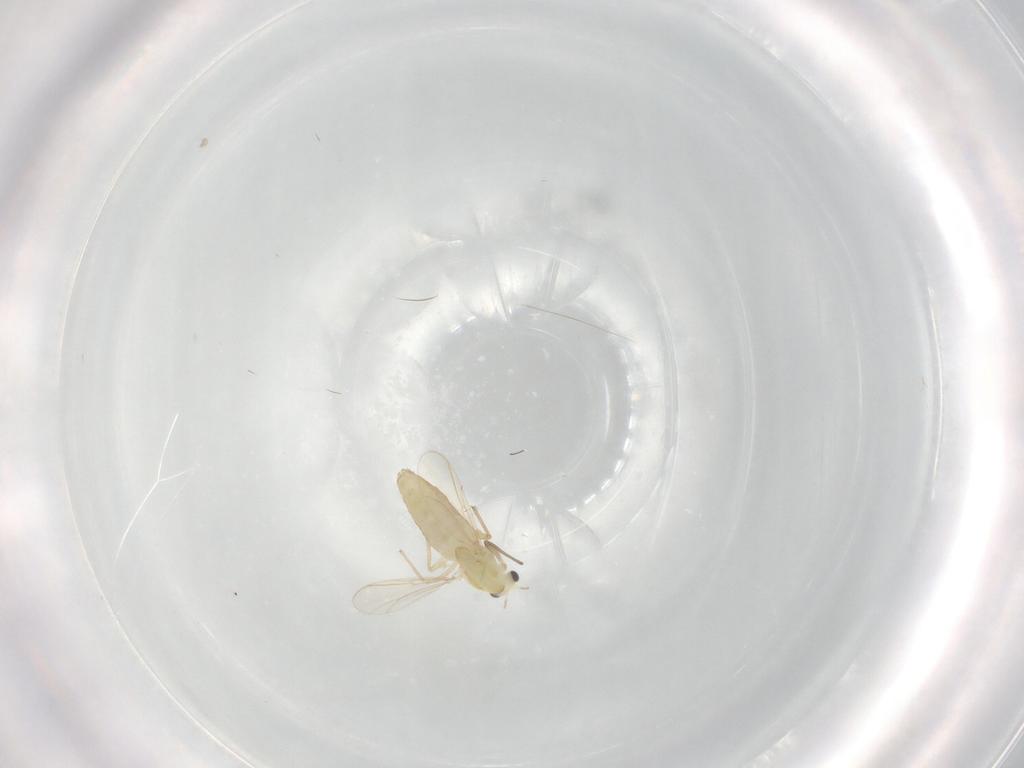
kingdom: Animalia
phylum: Arthropoda
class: Insecta
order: Diptera
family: Chironomidae
